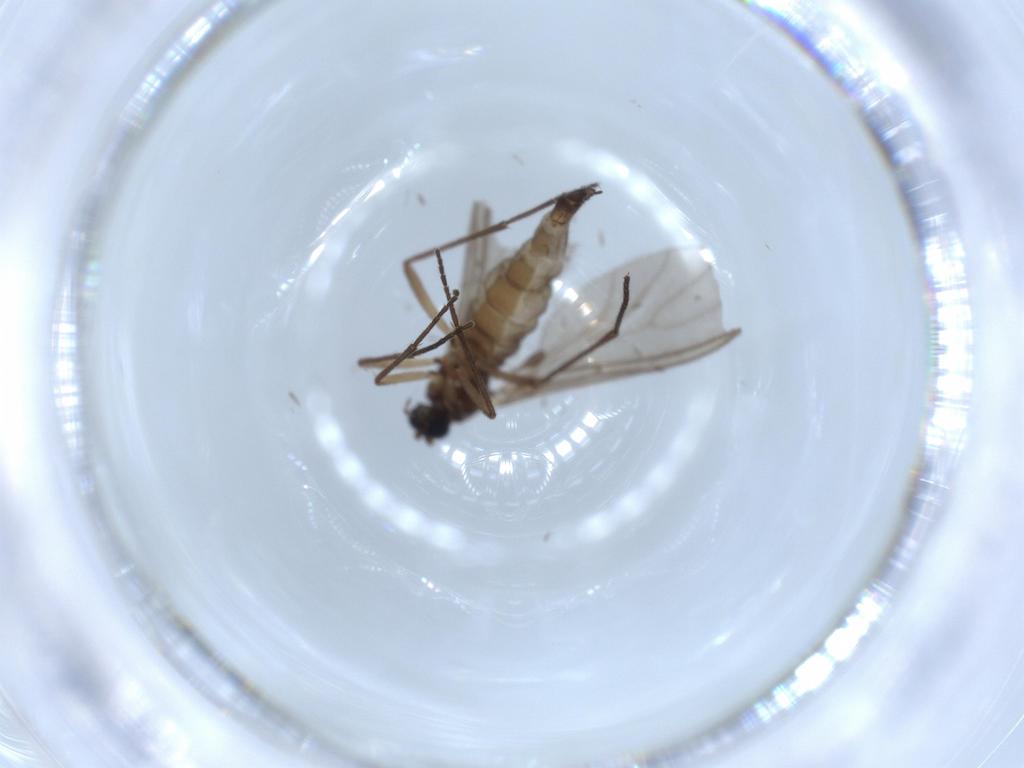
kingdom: Animalia
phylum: Arthropoda
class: Insecta
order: Diptera
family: Sciaridae
